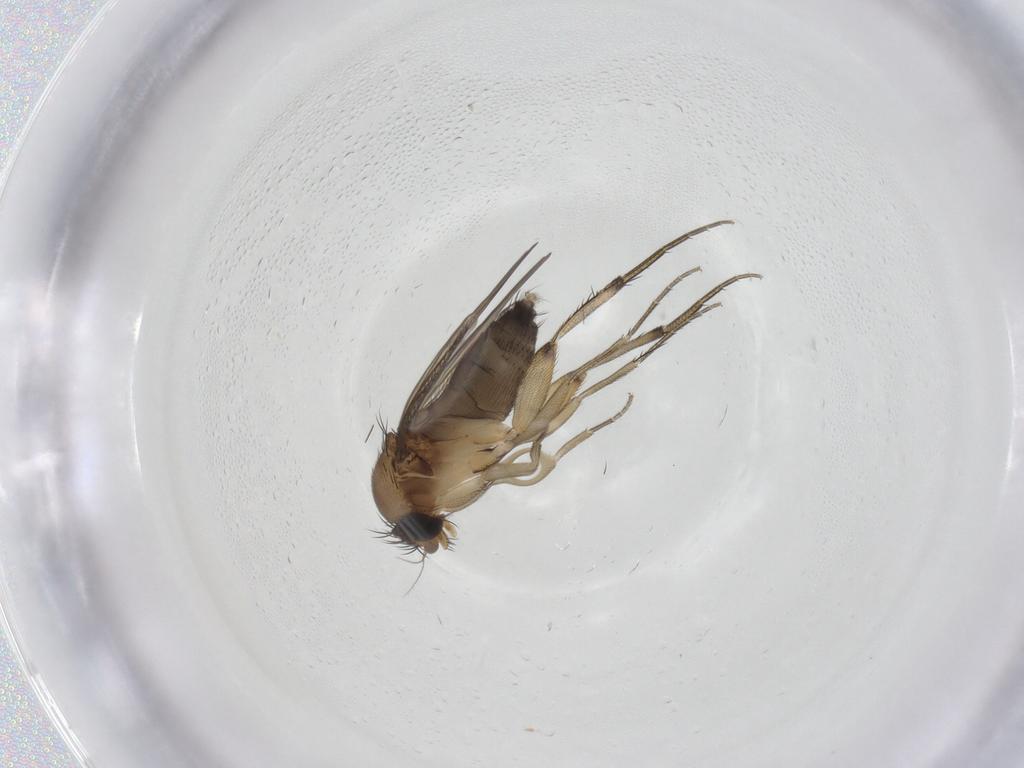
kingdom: Animalia
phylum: Arthropoda
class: Insecta
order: Diptera
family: Phoridae
